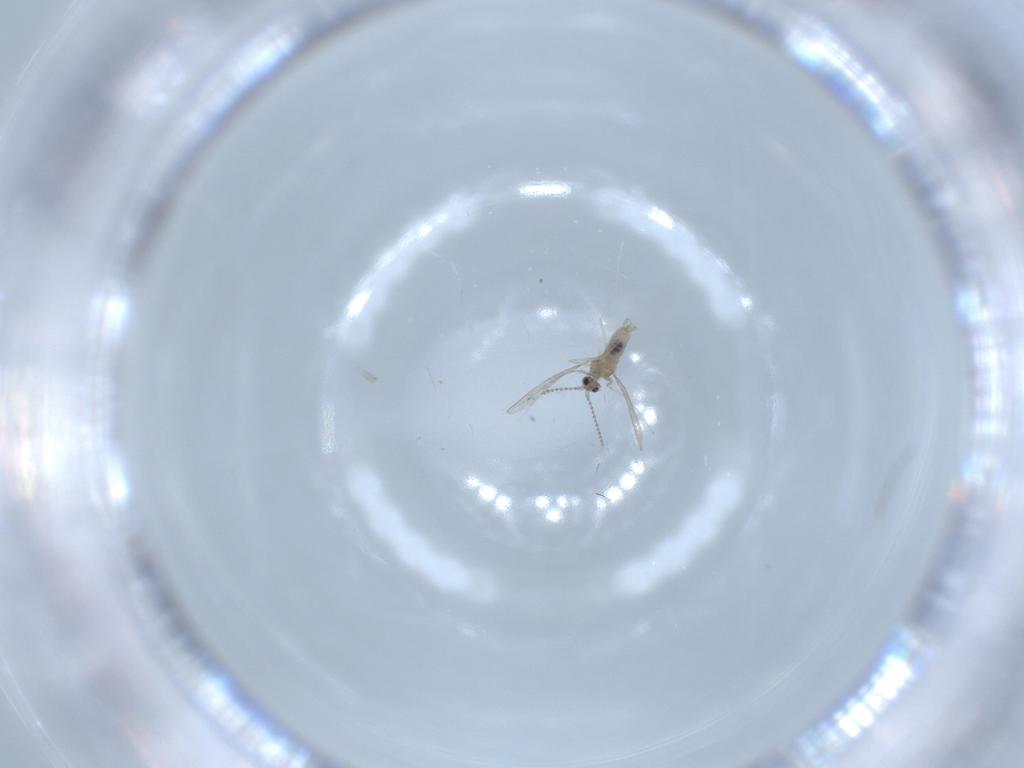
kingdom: Animalia
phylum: Arthropoda
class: Insecta
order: Diptera
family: Cecidomyiidae
